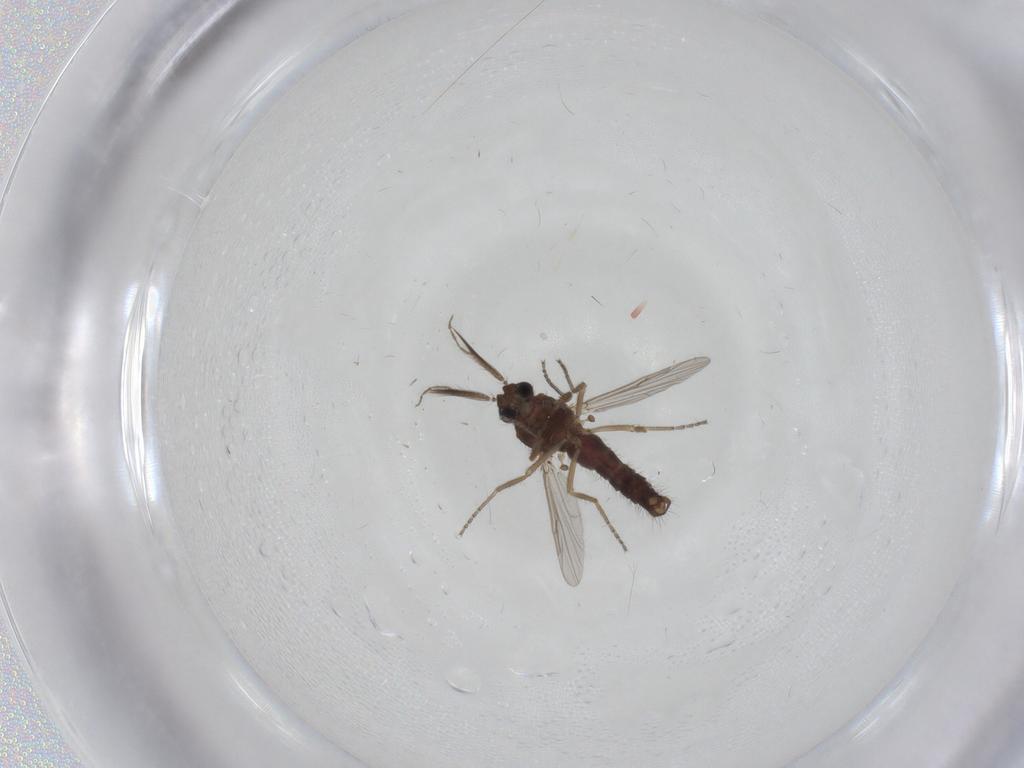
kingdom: Animalia
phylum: Arthropoda
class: Insecta
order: Diptera
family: Ceratopogonidae
